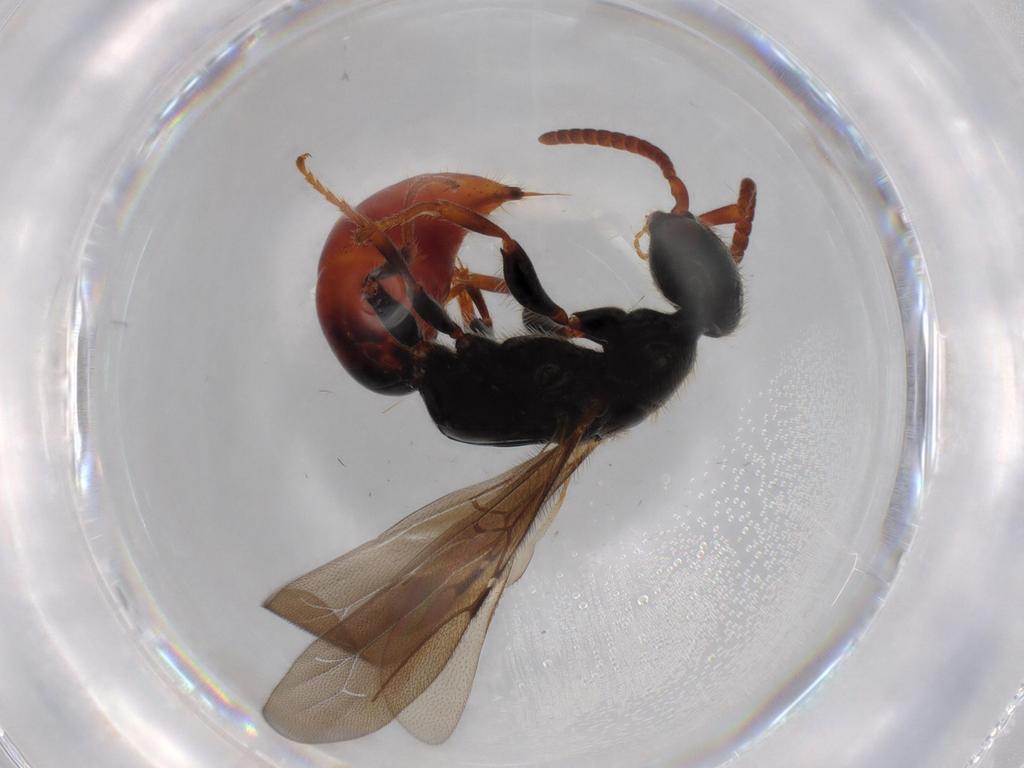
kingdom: Animalia
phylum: Arthropoda
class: Insecta
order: Hymenoptera
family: Bethylidae
